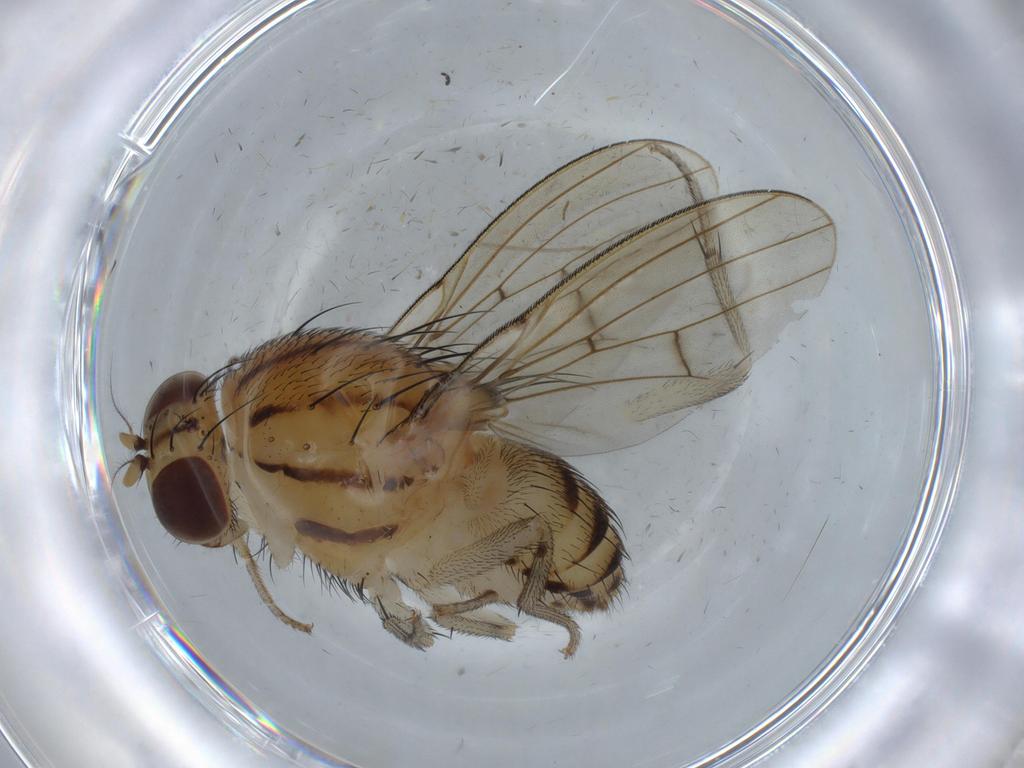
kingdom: Animalia
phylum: Arthropoda
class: Insecta
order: Diptera
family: Lauxaniidae
